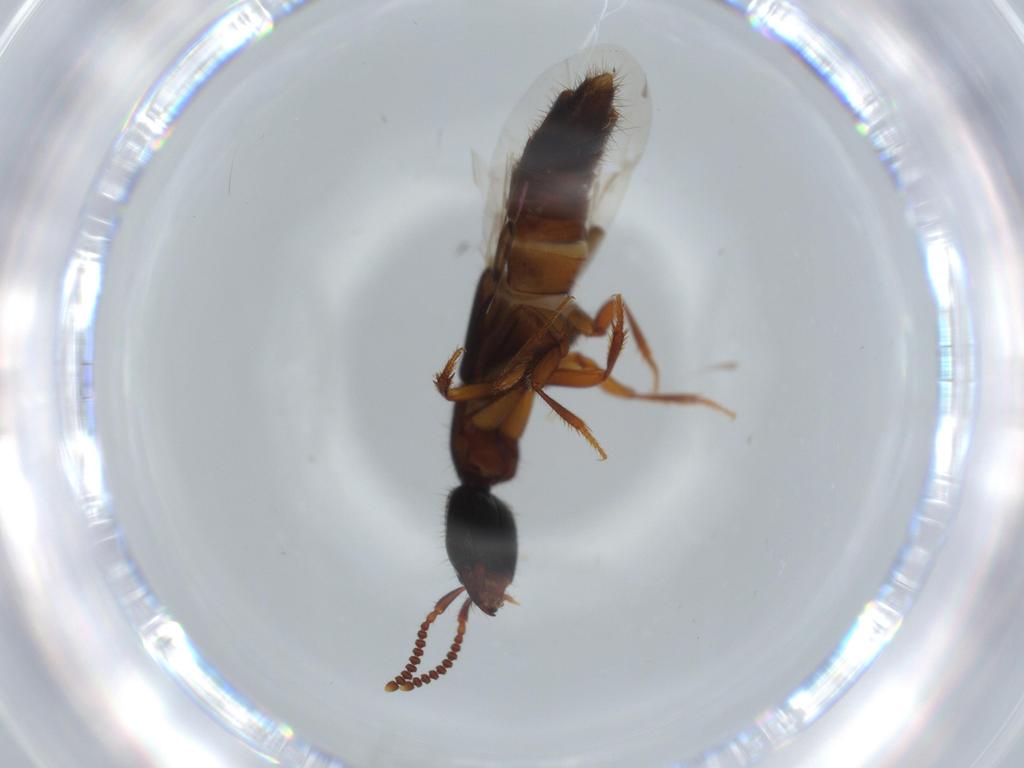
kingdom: Animalia
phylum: Arthropoda
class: Insecta
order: Coleoptera
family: Staphylinidae
